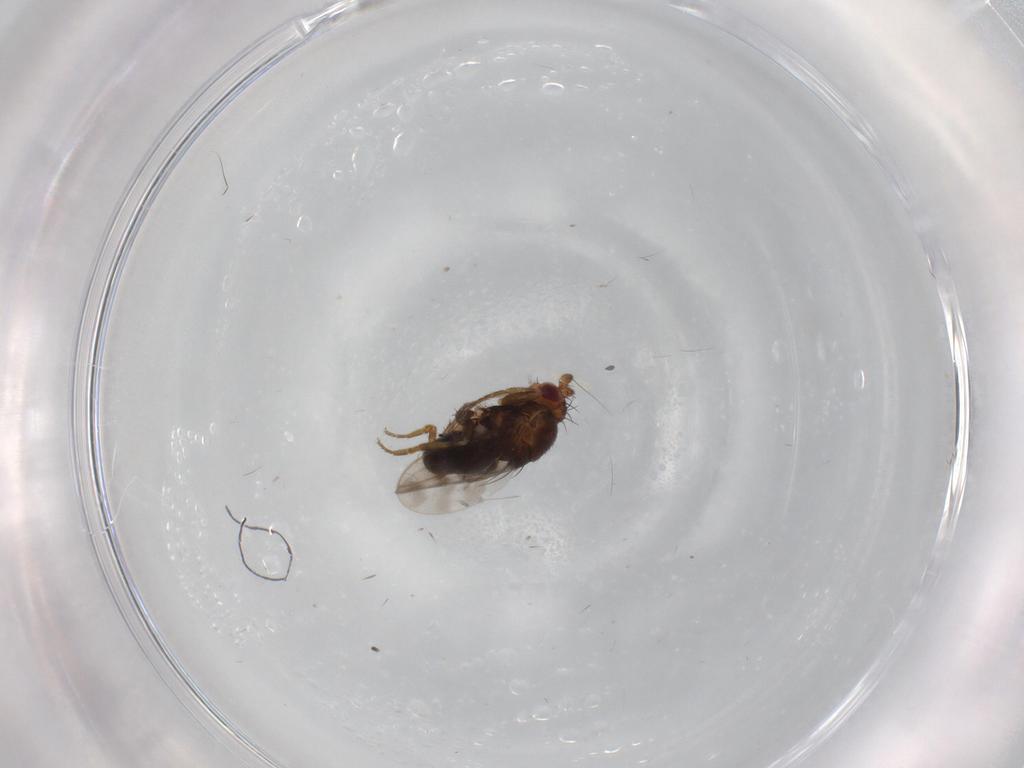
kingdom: Animalia
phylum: Arthropoda
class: Insecta
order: Diptera
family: Sphaeroceridae
